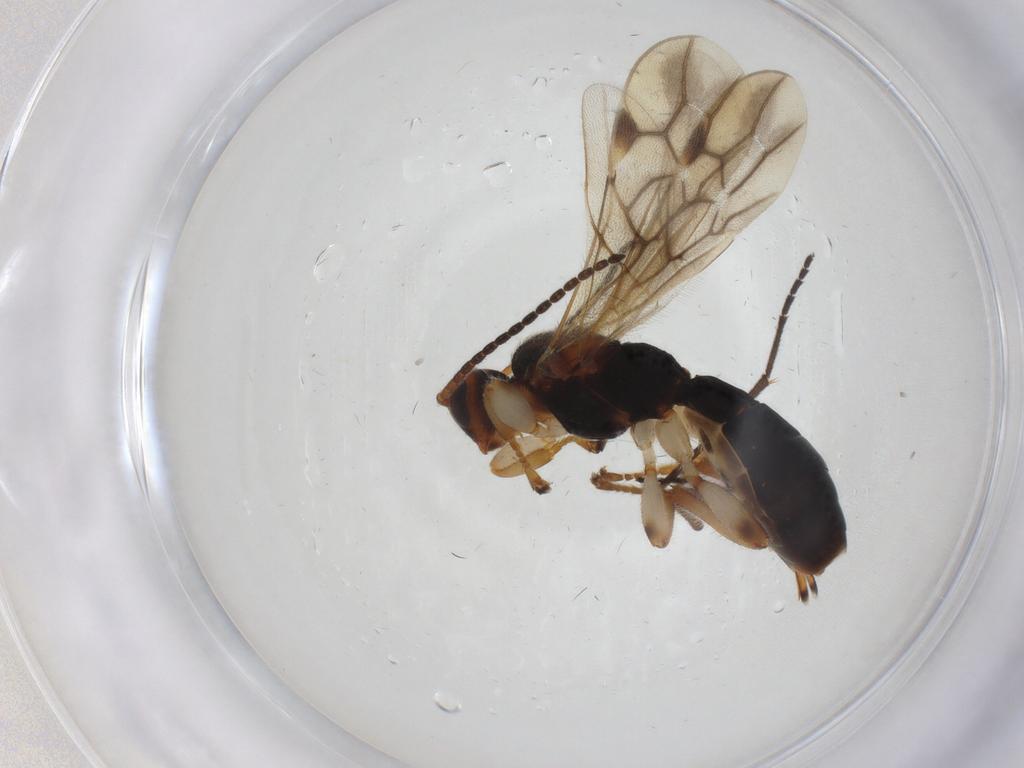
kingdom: Animalia
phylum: Arthropoda
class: Insecta
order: Hymenoptera
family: Braconidae
